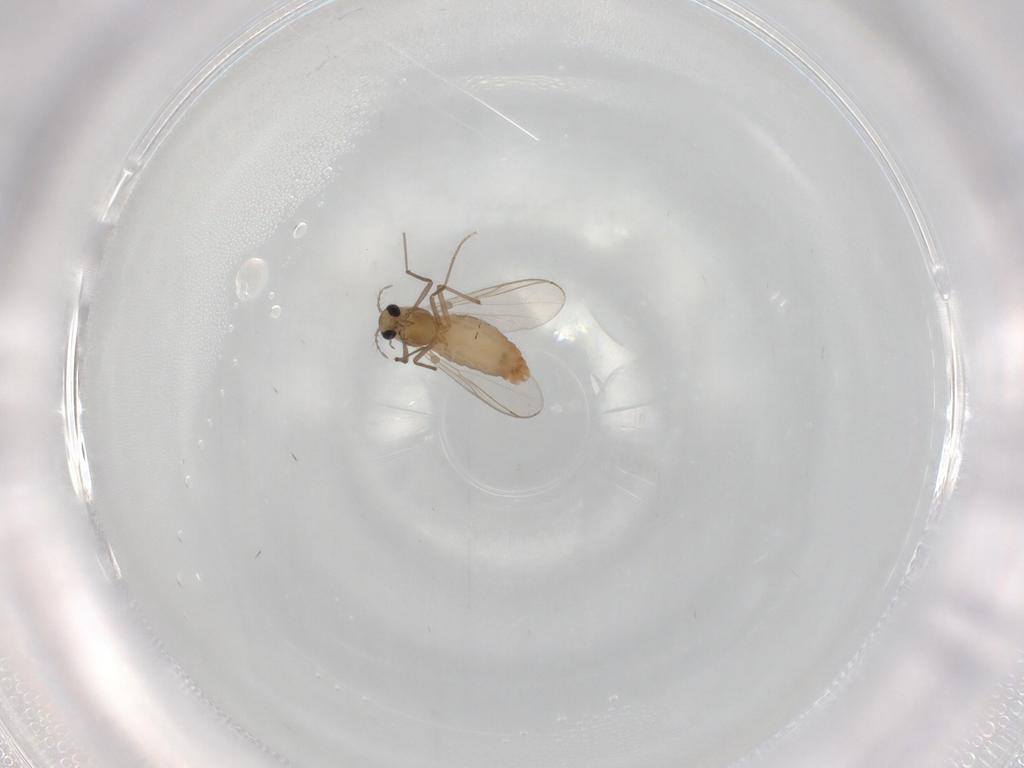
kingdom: Animalia
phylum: Arthropoda
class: Insecta
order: Diptera
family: Chironomidae
